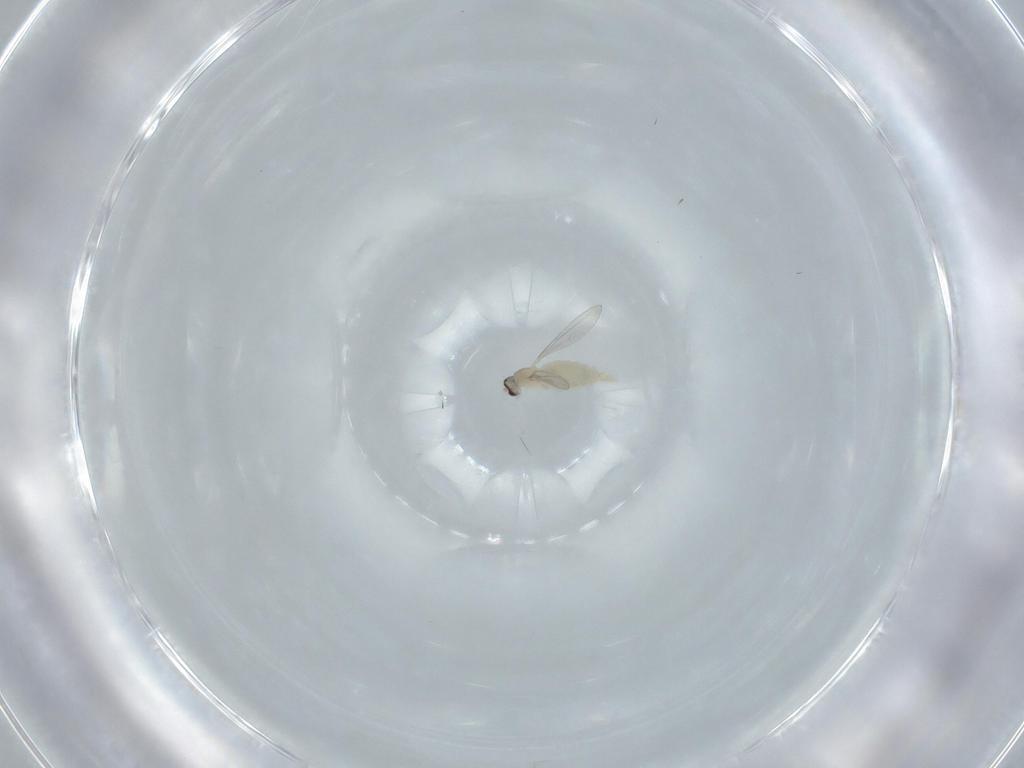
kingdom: Animalia
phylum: Arthropoda
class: Insecta
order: Diptera
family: Cecidomyiidae
